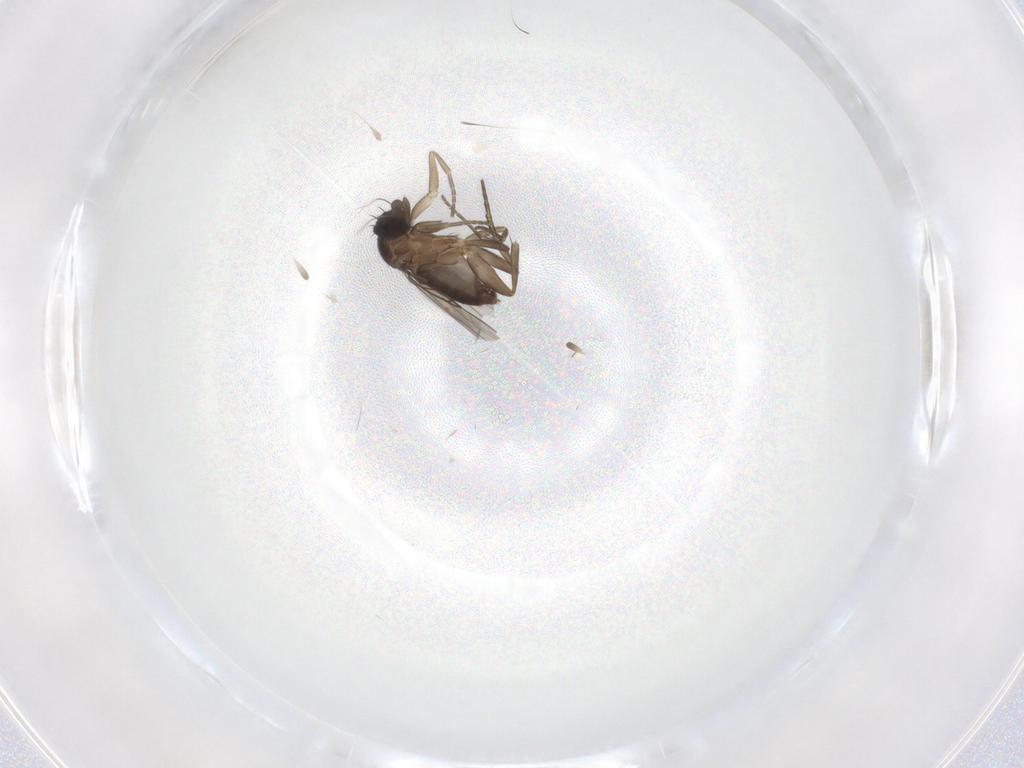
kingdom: Animalia
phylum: Arthropoda
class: Insecta
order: Diptera
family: Phoridae
